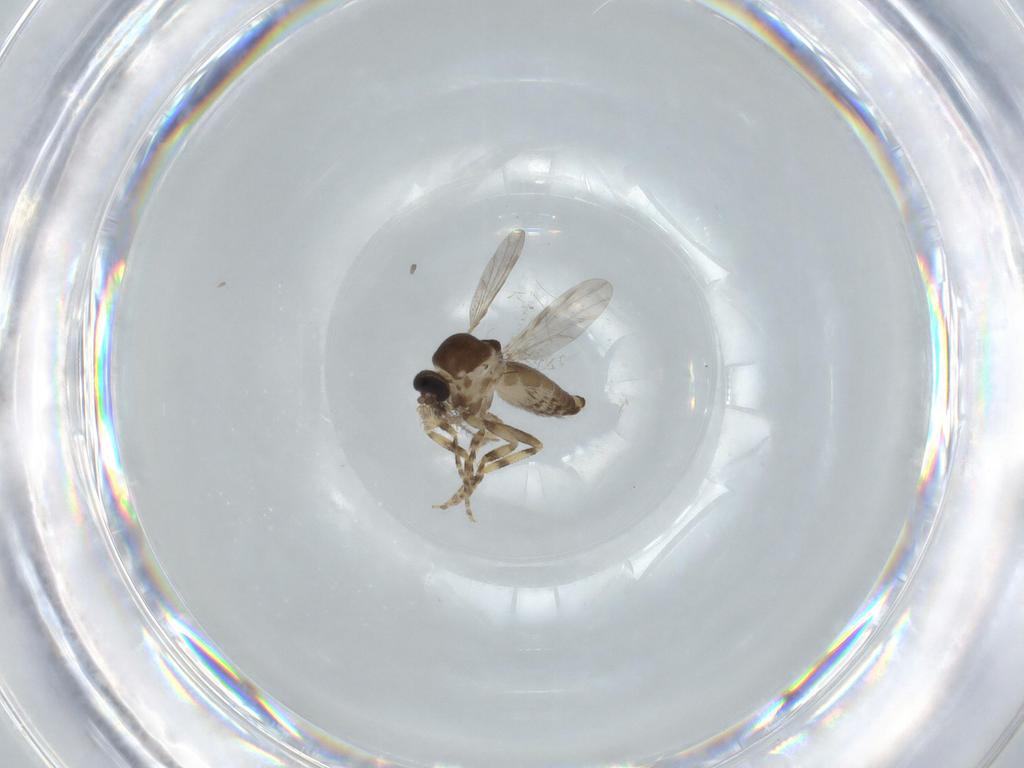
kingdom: Animalia
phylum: Arthropoda
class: Insecta
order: Diptera
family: Ceratopogonidae
